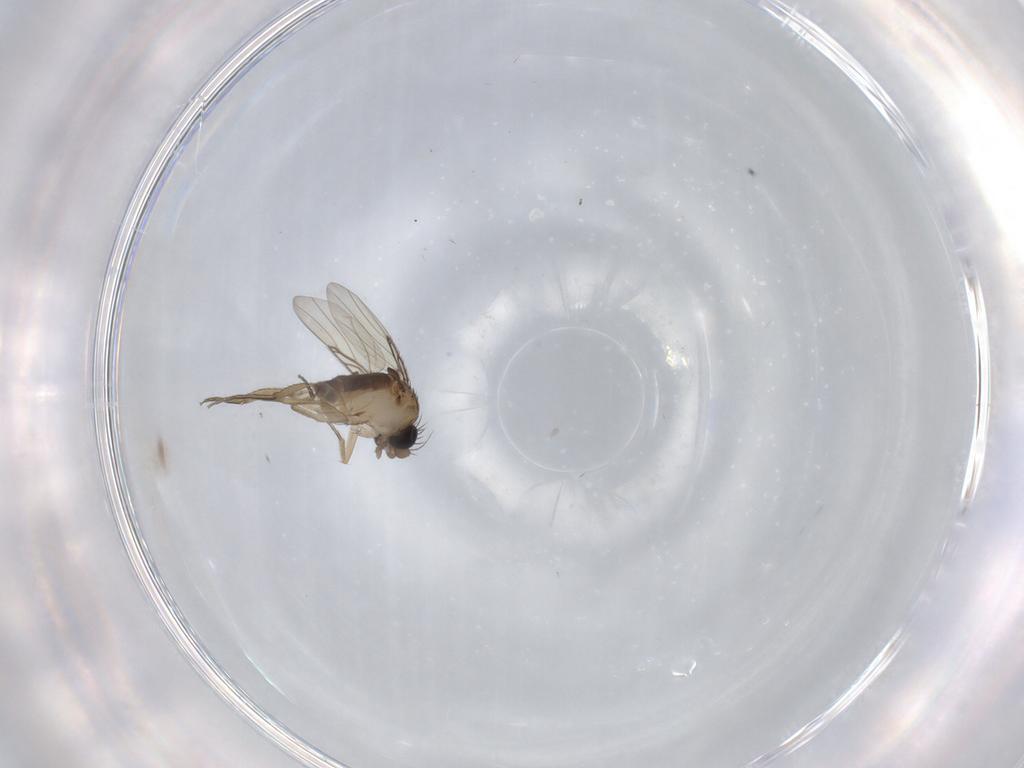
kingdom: Animalia
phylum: Arthropoda
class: Insecta
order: Diptera
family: Phoridae
